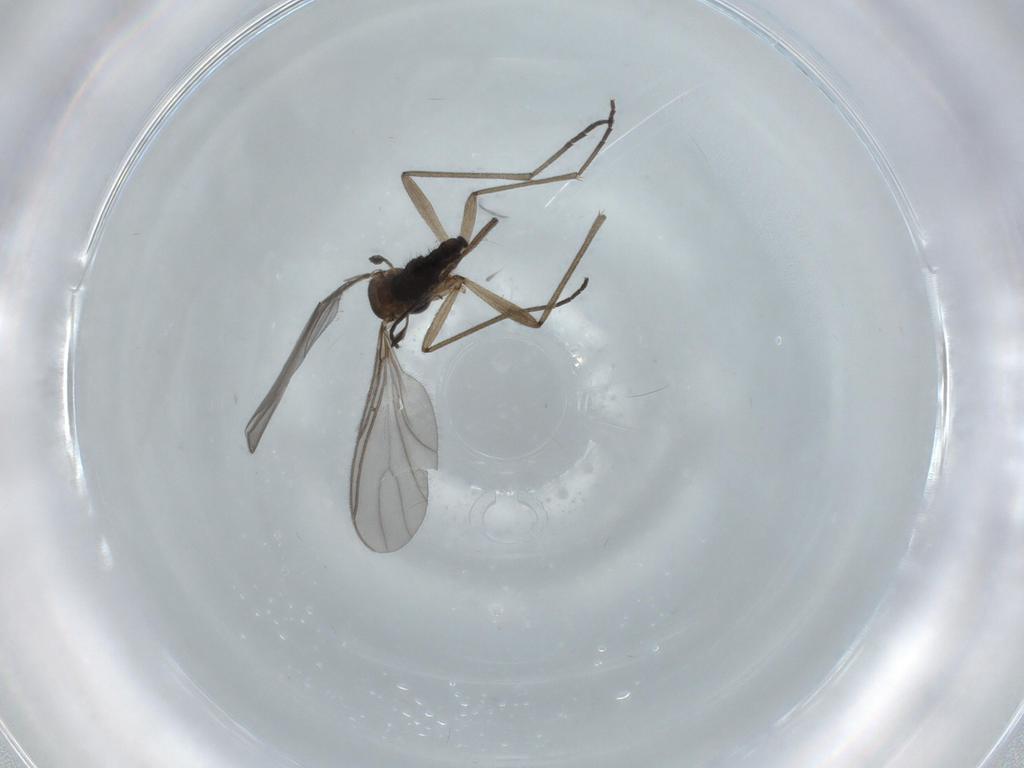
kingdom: Animalia
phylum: Arthropoda
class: Insecta
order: Diptera
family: Sciaridae
